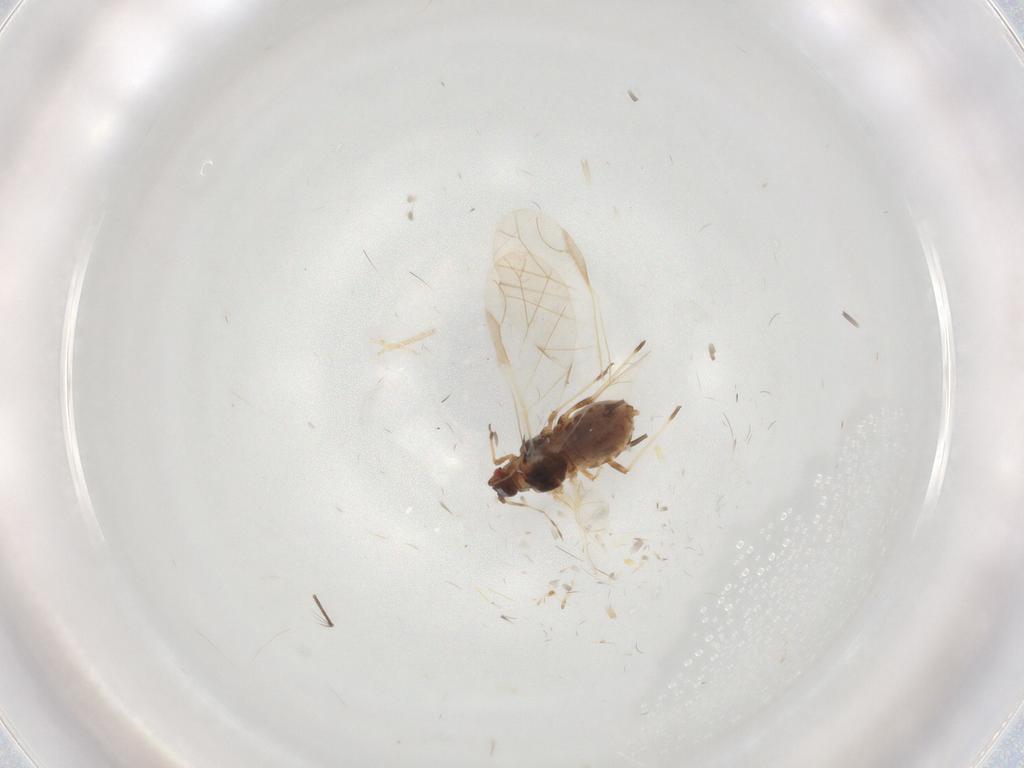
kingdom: Animalia
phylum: Arthropoda
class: Insecta
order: Hemiptera
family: Aphididae
